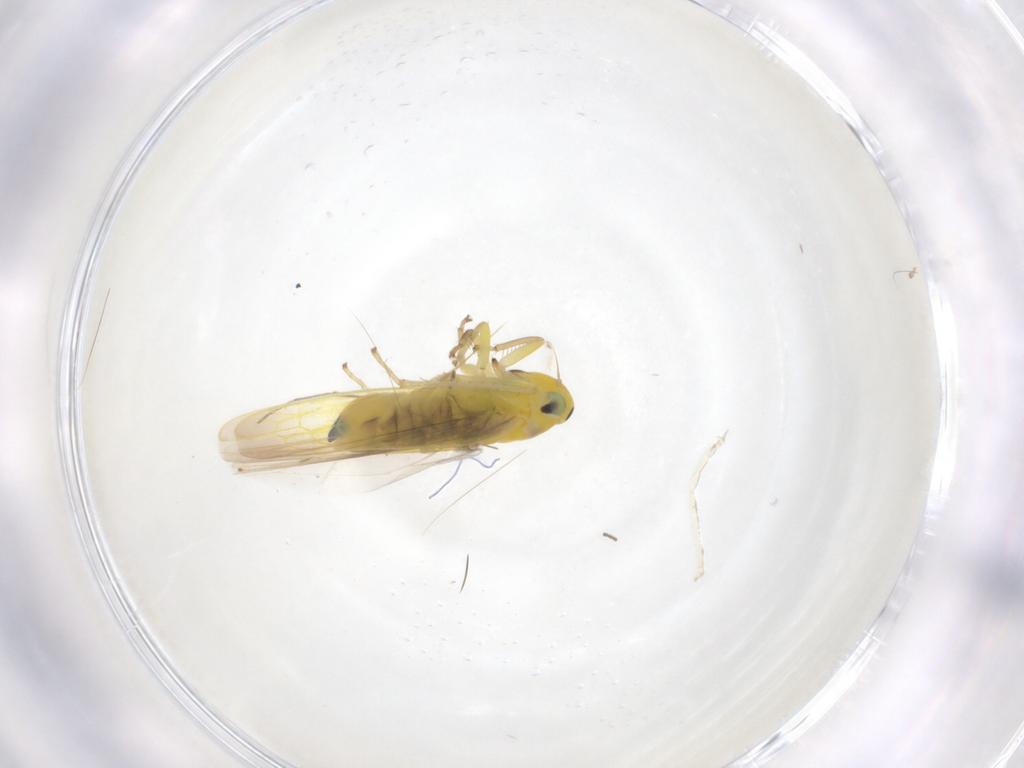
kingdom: Animalia
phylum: Arthropoda
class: Insecta
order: Hemiptera
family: Cicadellidae
